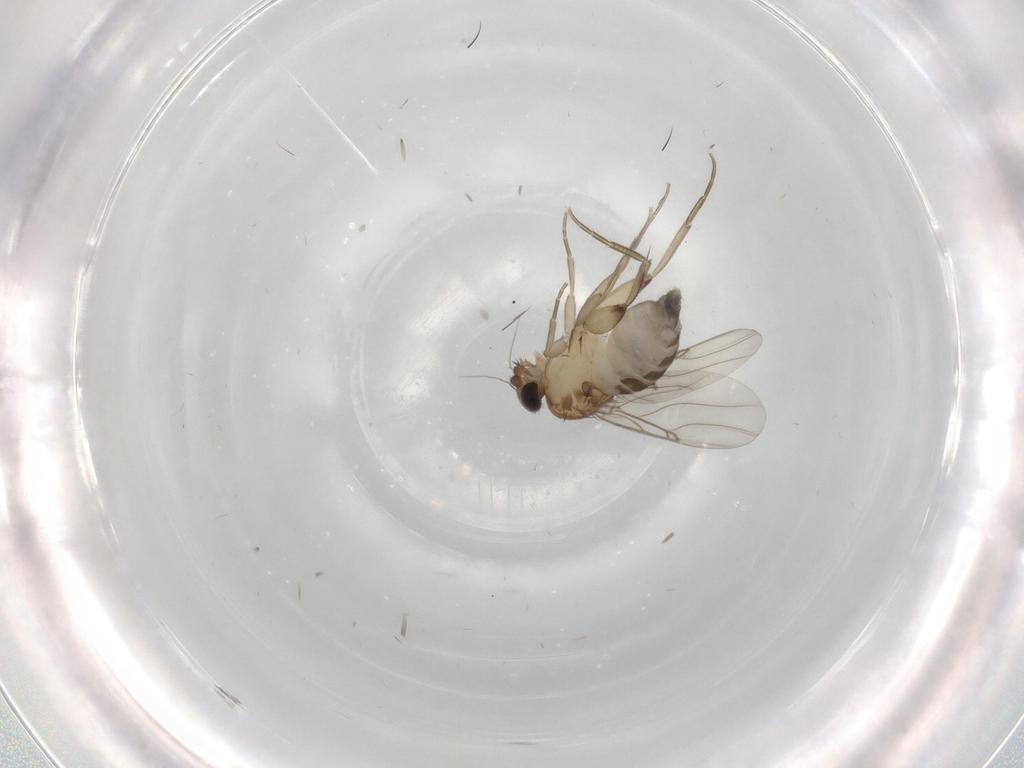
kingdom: Animalia
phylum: Arthropoda
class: Insecta
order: Diptera
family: Phoridae
